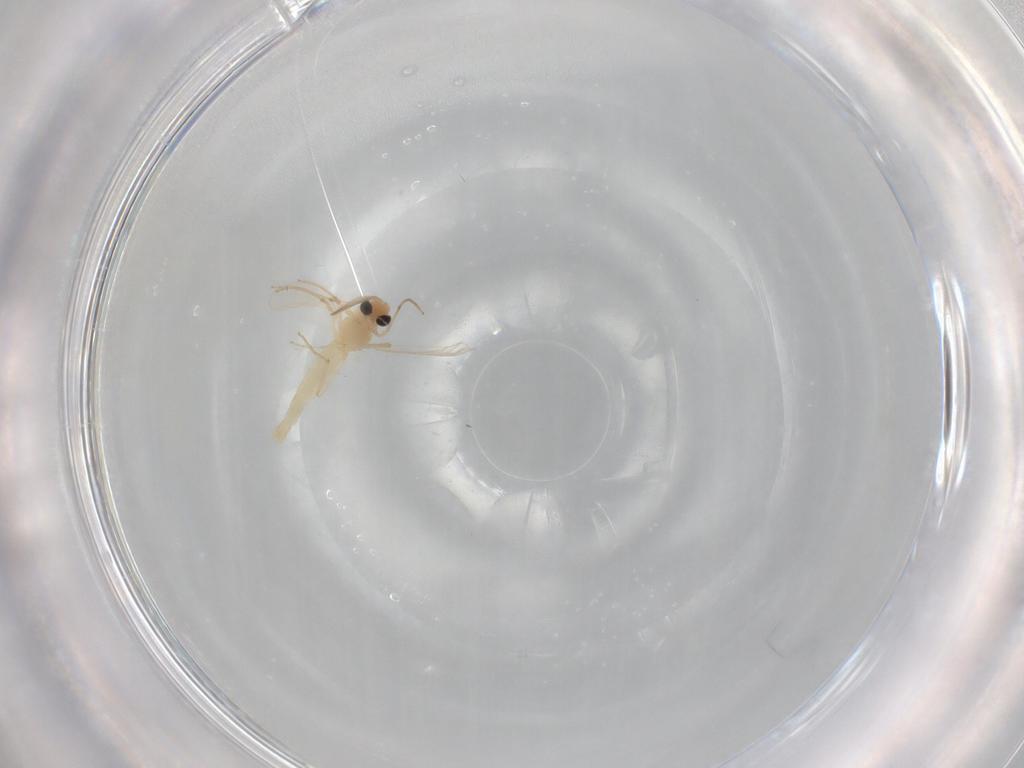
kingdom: Animalia
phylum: Arthropoda
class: Insecta
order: Diptera
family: Chironomidae
